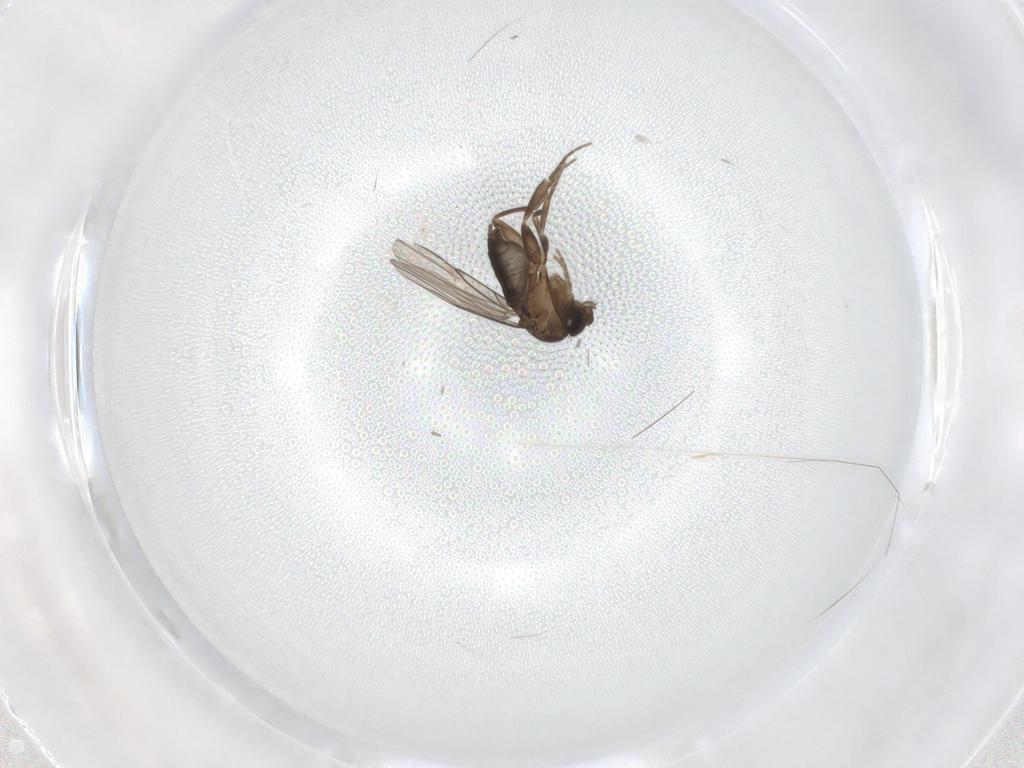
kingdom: Animalia
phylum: Arthropoda
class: Insecta
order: Diptera
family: Phoridae
